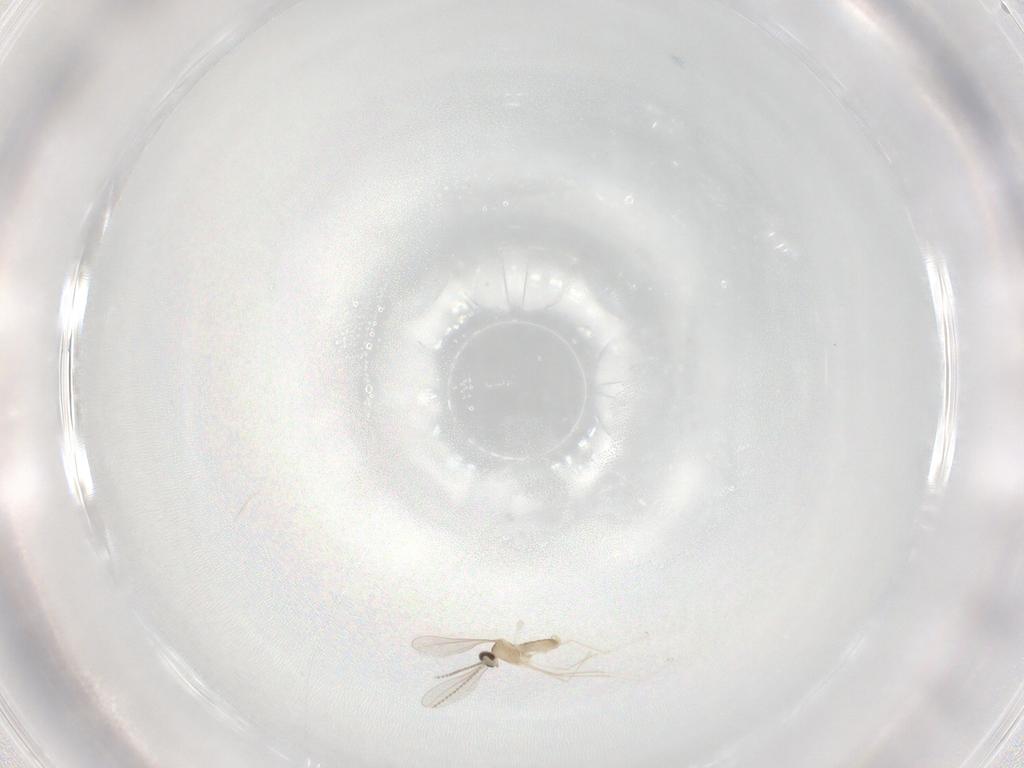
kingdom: Animalia
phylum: Arthropoda
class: Insecta
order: Diptera
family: Cecidomyiidae
